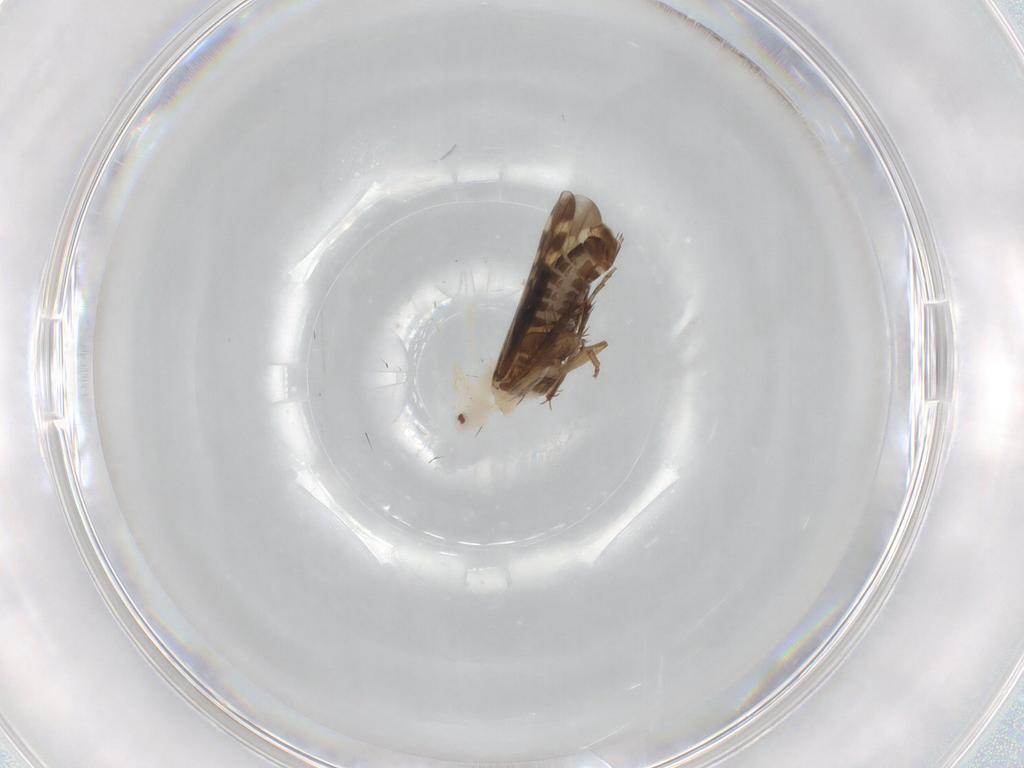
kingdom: Animalia
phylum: Arthropoda
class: Insecta
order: Hemiptera
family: Cicadellidae
